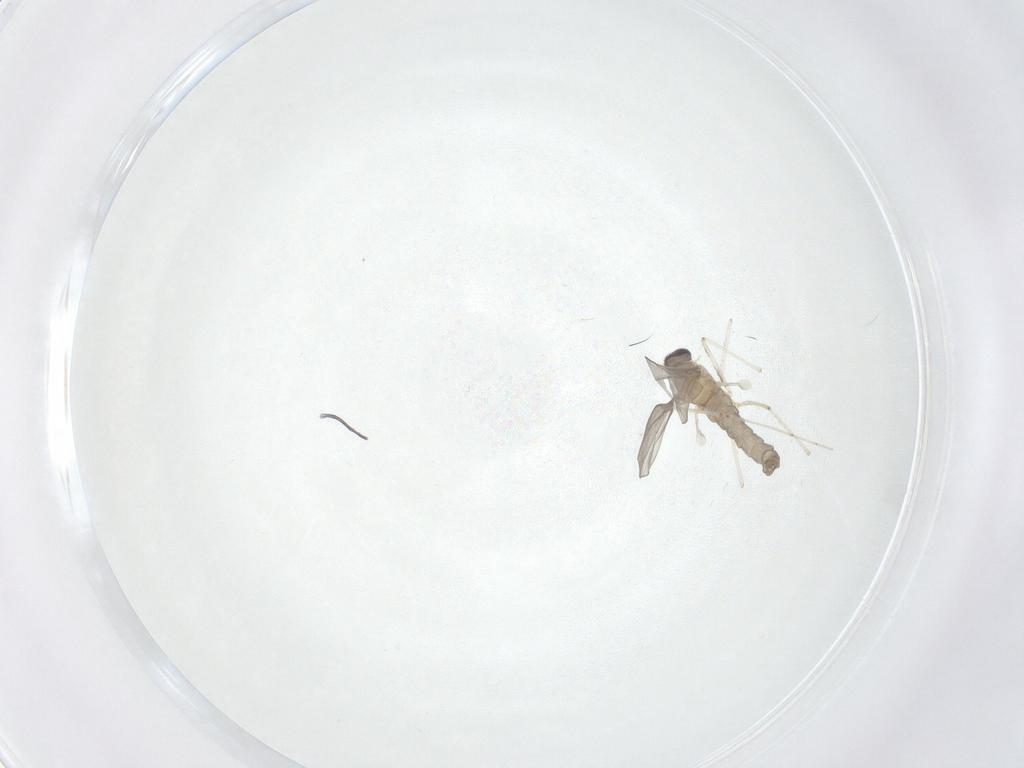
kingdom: Animalia
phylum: Arthropoda
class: Insecta
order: Diptera
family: Cecidomyiidae
